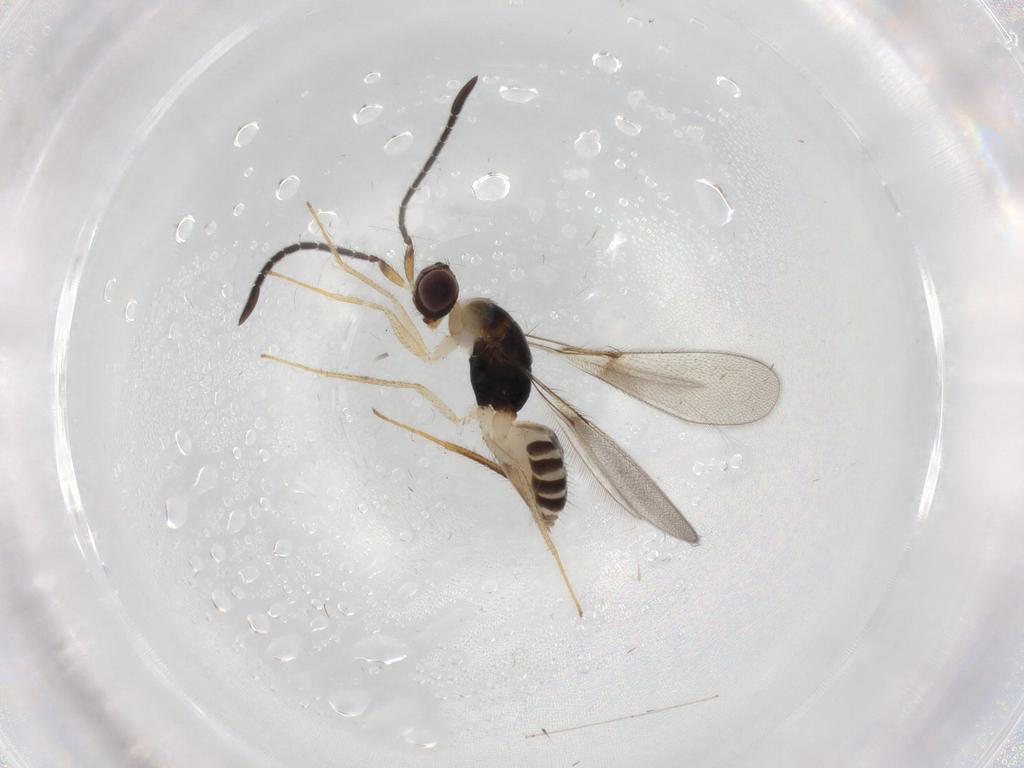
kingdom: Animalia
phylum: Arthropoda
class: Insecta
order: Hymenoptera
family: Mymaridae
